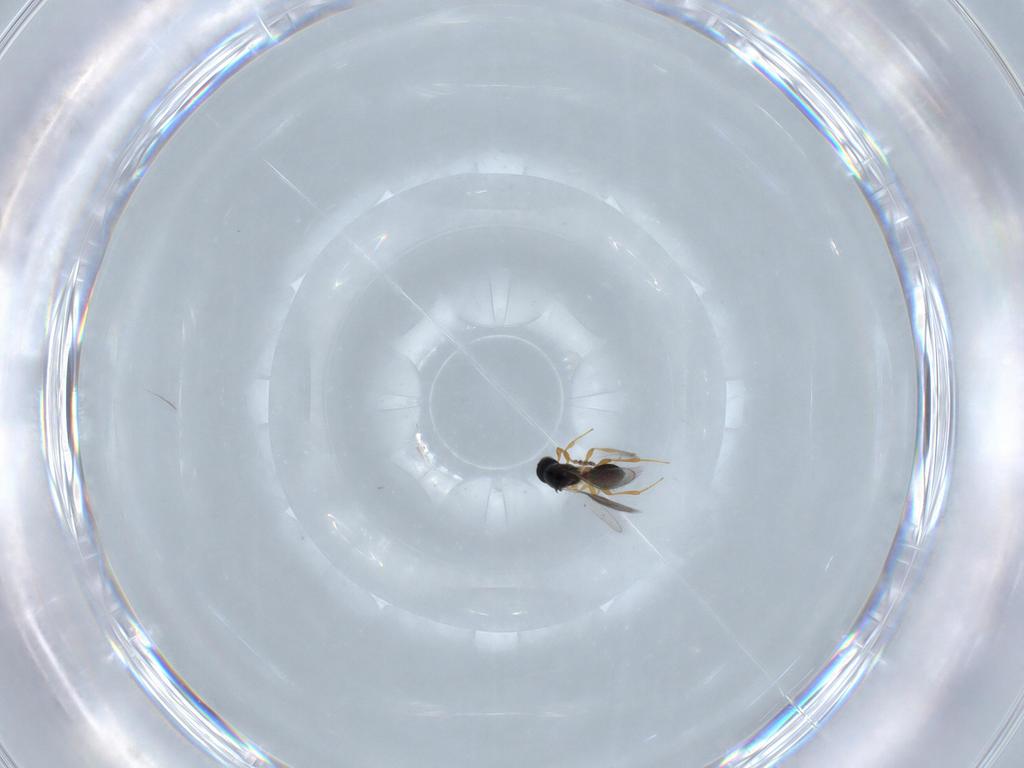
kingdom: Animalia
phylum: Arthropoda
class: Insecta
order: Hymenoptera
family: Platygastridae
